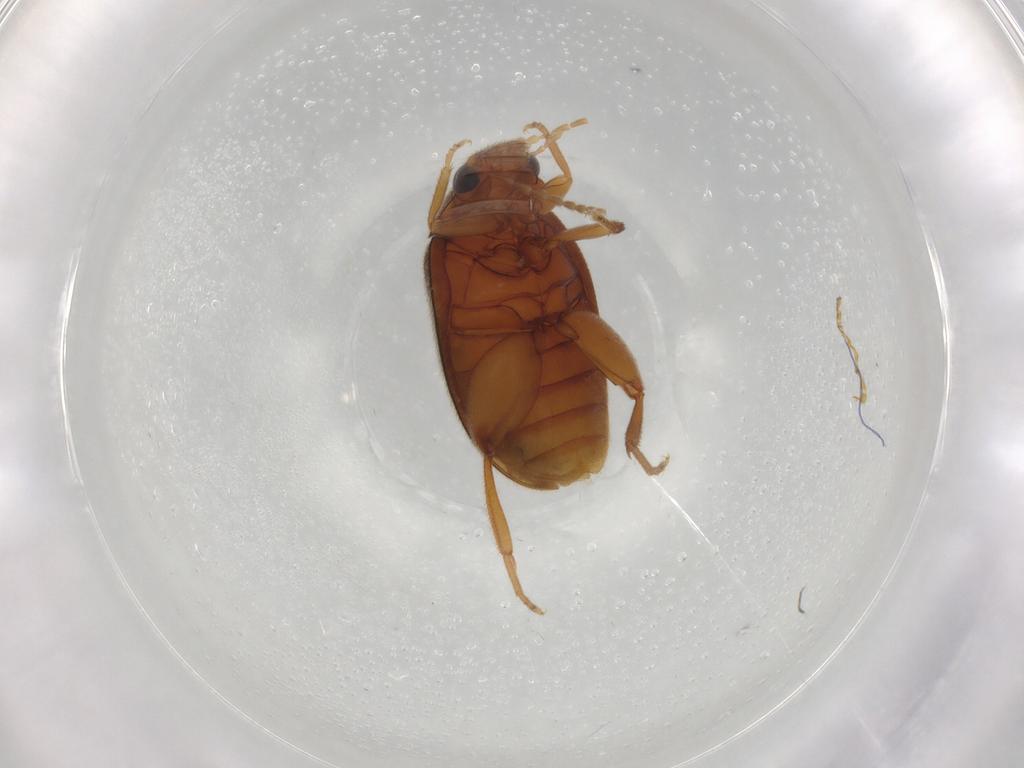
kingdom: Animalia
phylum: Arthropoda
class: Insecta
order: Coleoptera
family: Scirtidae
